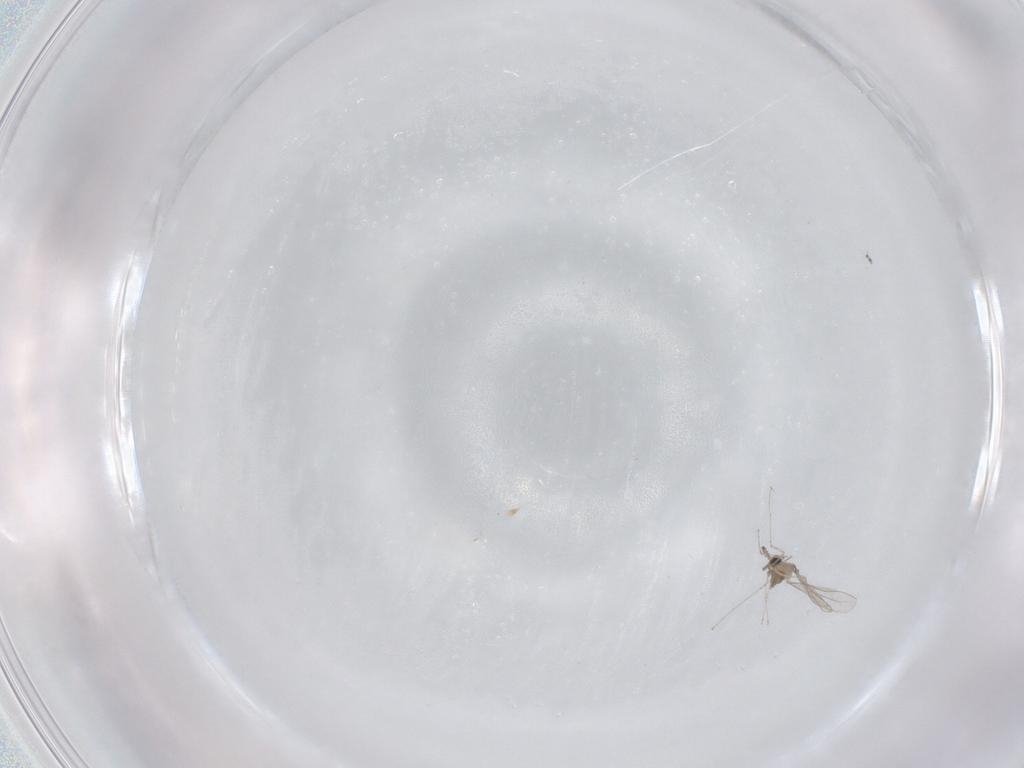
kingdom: Animalia
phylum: Arthropoda
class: Insecta
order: Diptera
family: Cecidomyiidae
